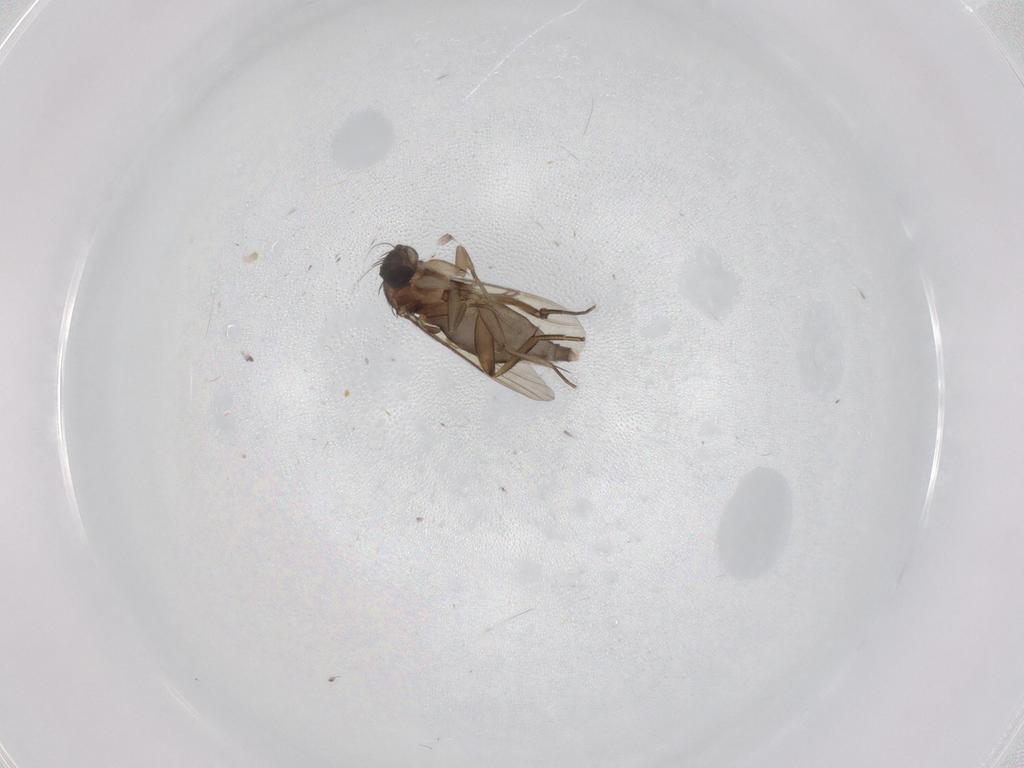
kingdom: Animalia
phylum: Arthropoda
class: Insecta
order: Diptera
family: Phoridae
